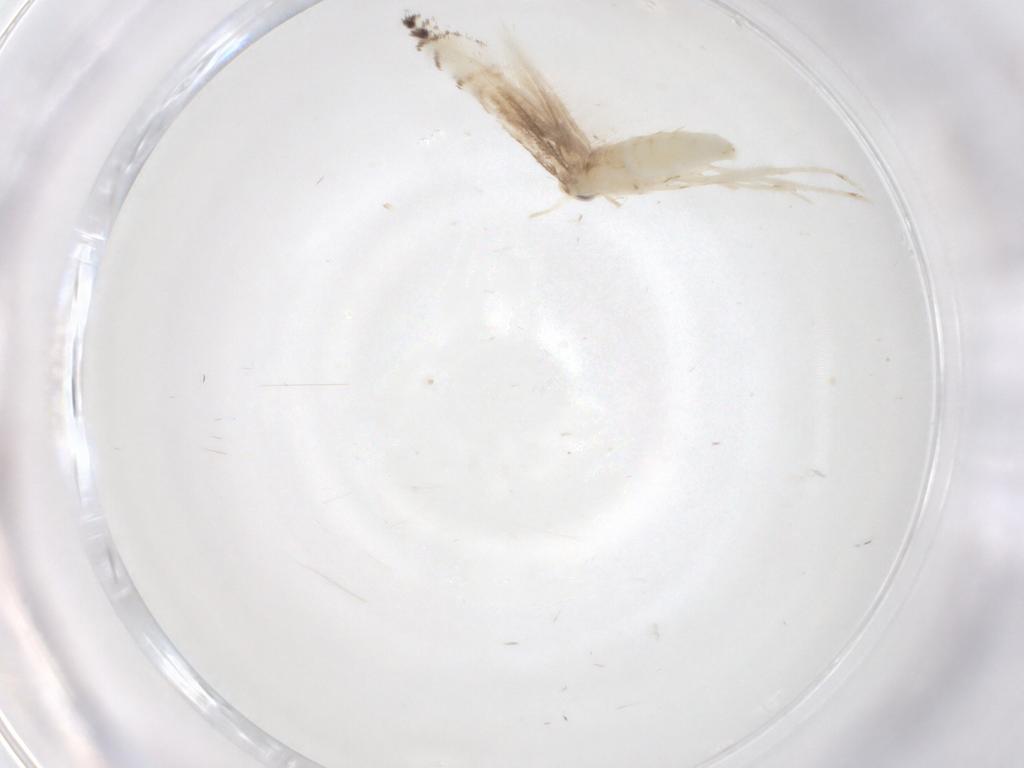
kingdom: Animalia
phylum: Arthropoda
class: Insecta
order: Lepidoptera
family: Gracillariidae
